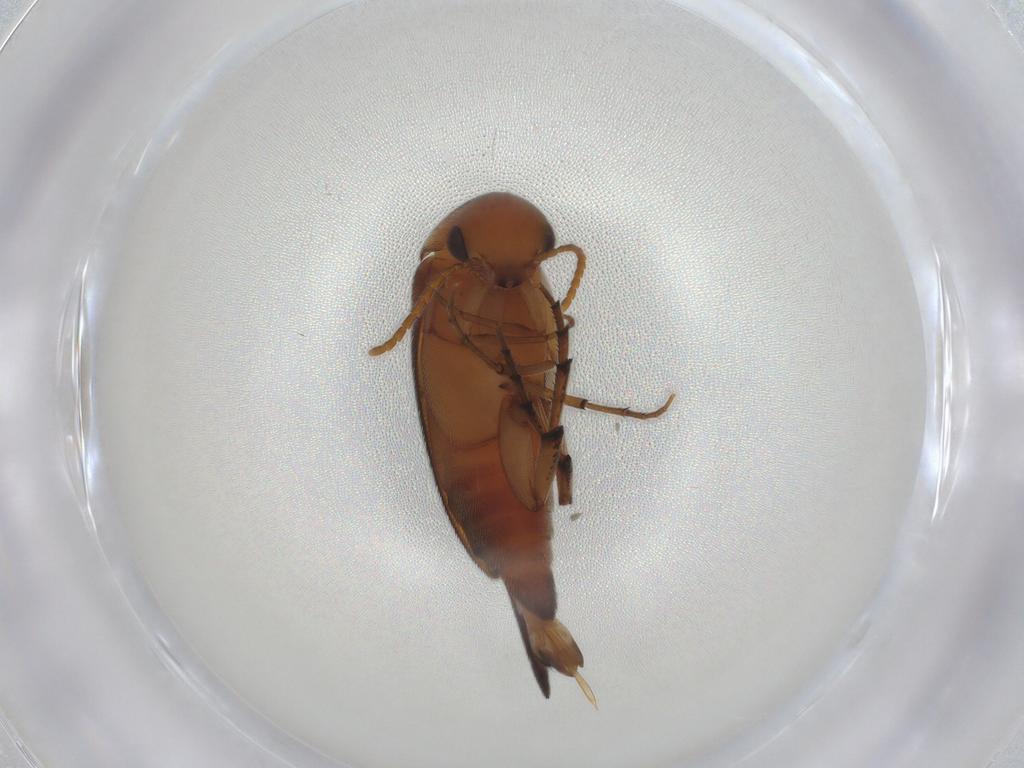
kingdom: Animalia
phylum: Arthropoda
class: Insecta
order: Coleoptera
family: Mordellidae
